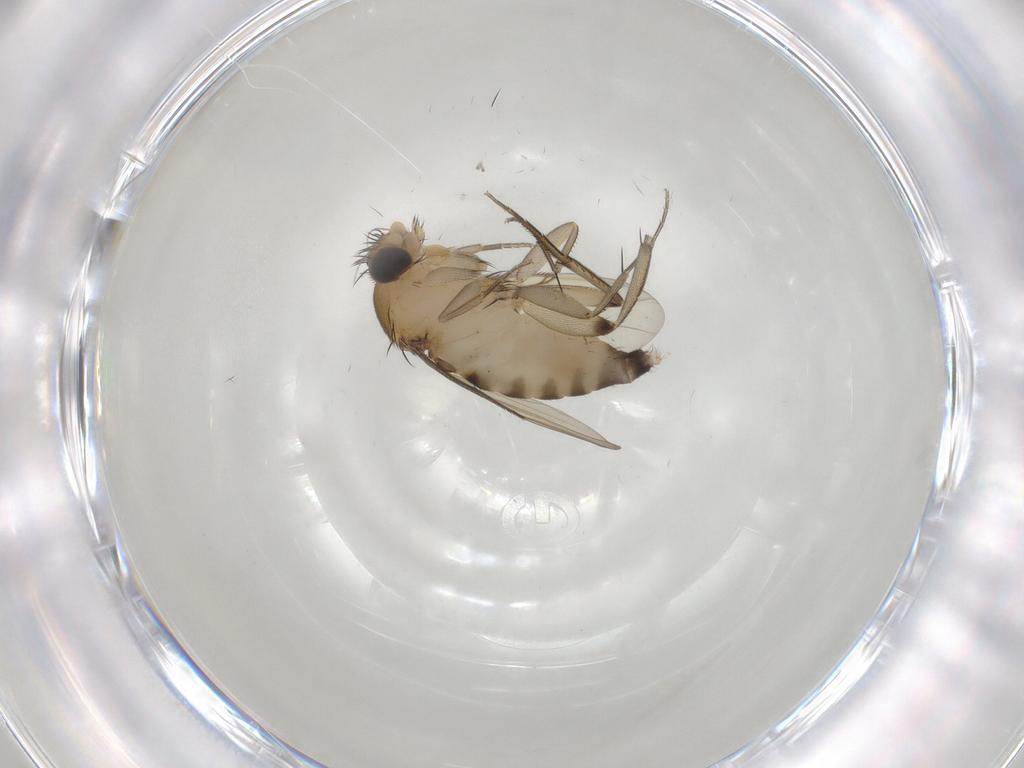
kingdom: Animalia
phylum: Arthropoda
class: Insecta
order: Diptera
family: Phoridae
